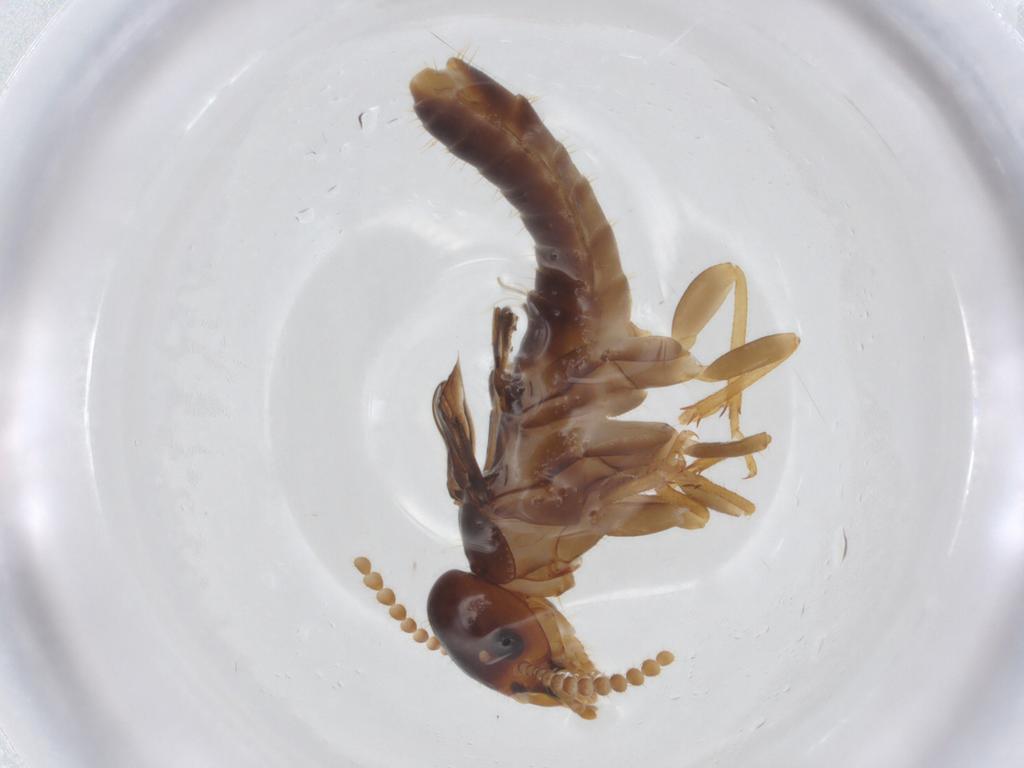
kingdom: Animalia
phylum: Arthropoda
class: Insecta
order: Blattodea
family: Kalotermitidae
